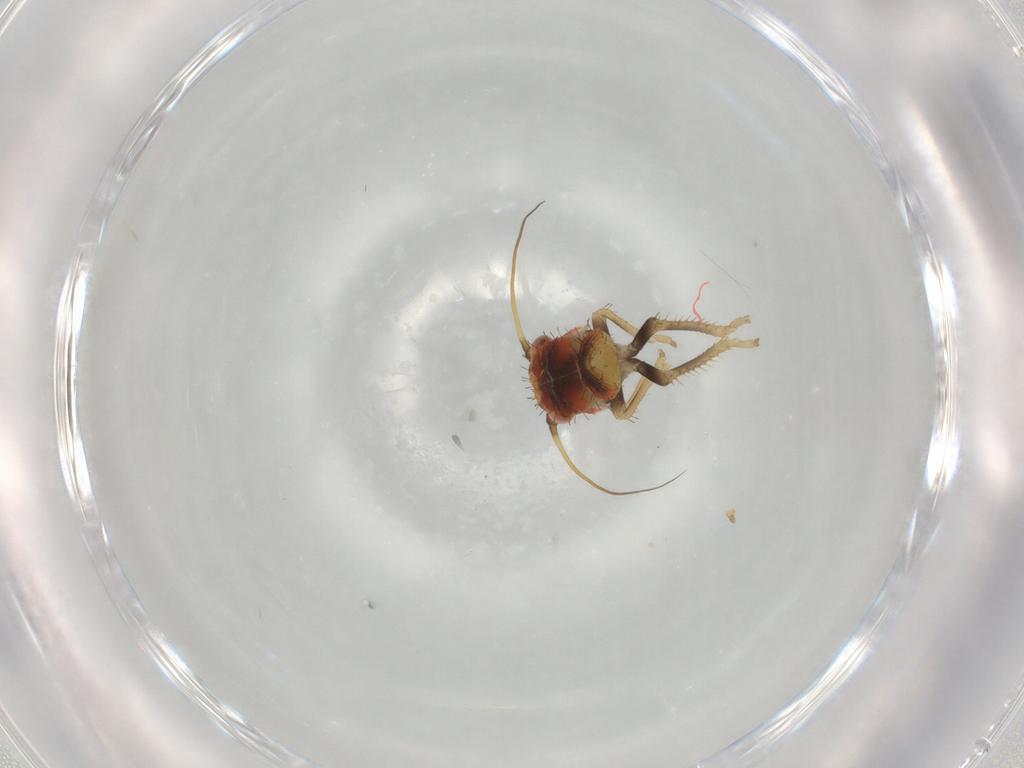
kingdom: Animalia
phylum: Arthropoda
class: Insecta
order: Hemiptera
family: Cicadellidae
